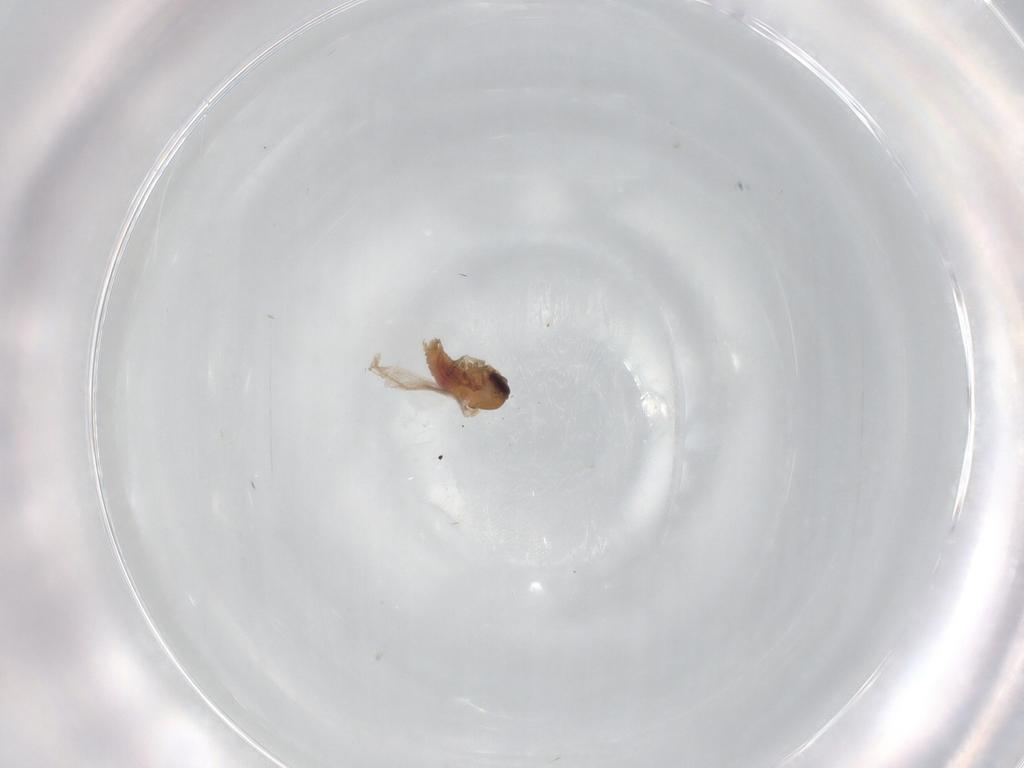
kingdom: Animalia
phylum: Arthropoda
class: Insecta
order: Diptera
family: Psychodidae
